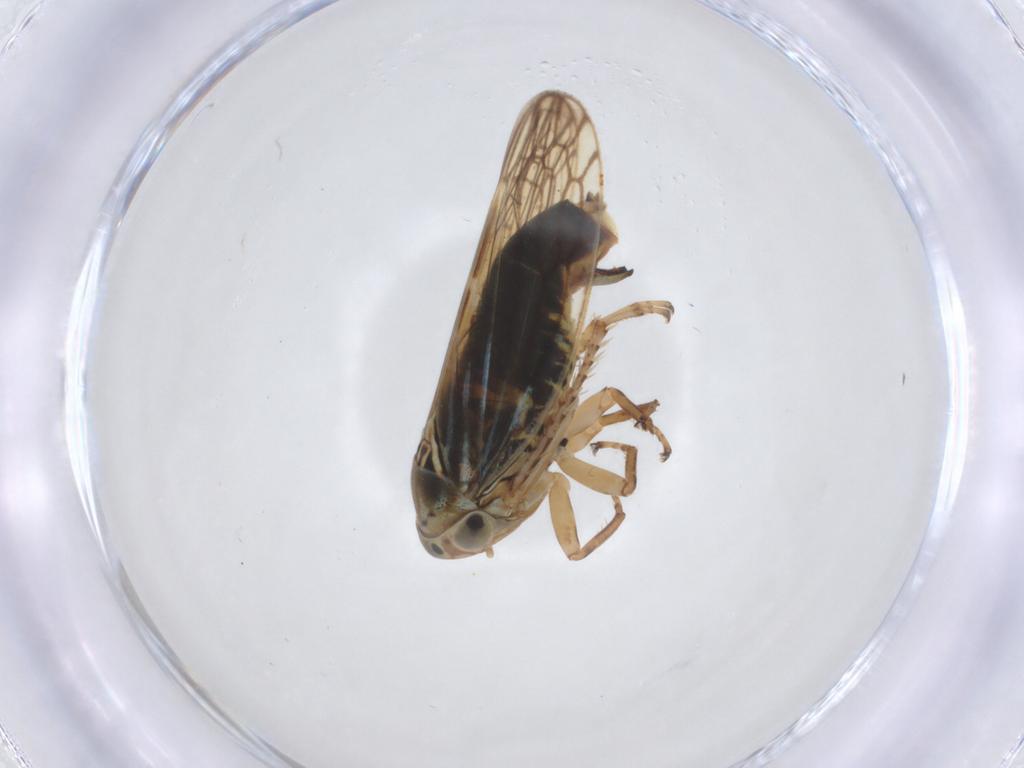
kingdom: Animalia
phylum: Arthropoda
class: Insecta
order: Hemiptera
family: Cicadellidae
